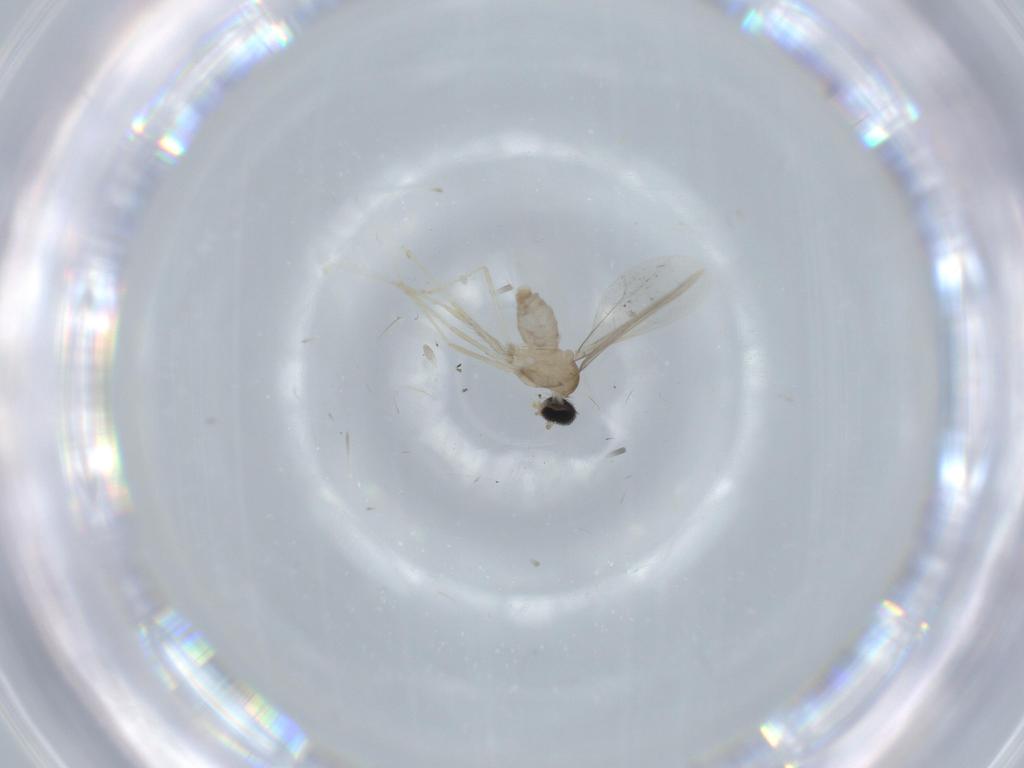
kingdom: Animalia
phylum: Arthropoda
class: Insecta
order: Diptera
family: Cecidomyiidae
